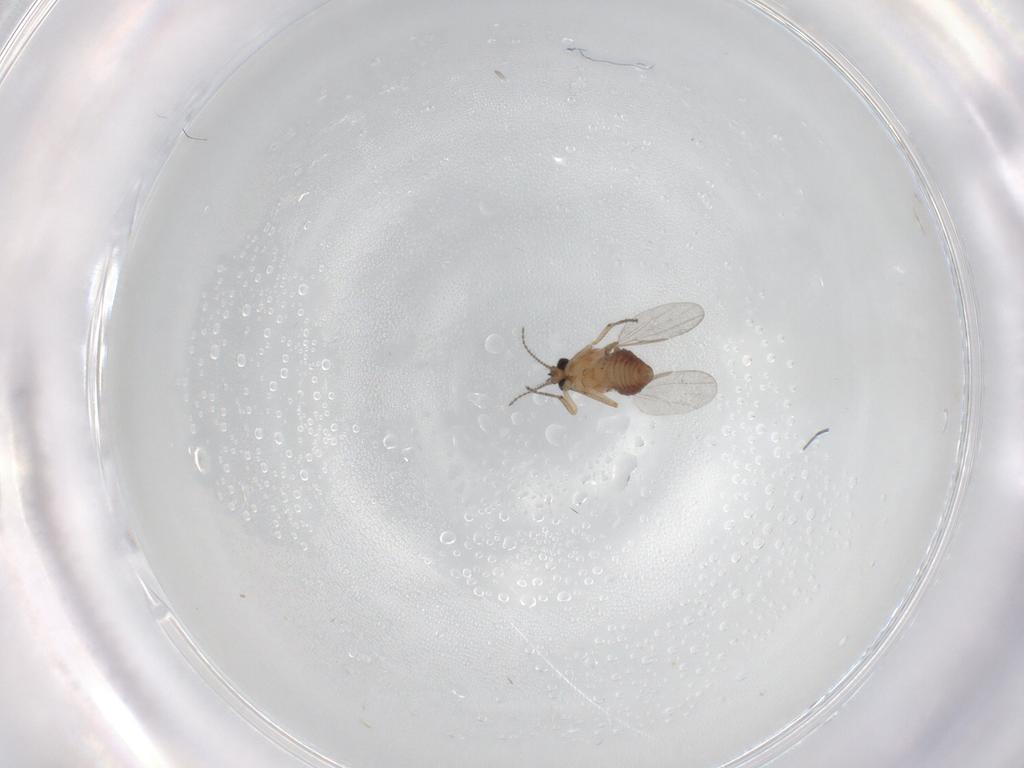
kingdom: Animalia
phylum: Arthropoda
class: Insecta
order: Diptera
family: Ceratopogonidae
